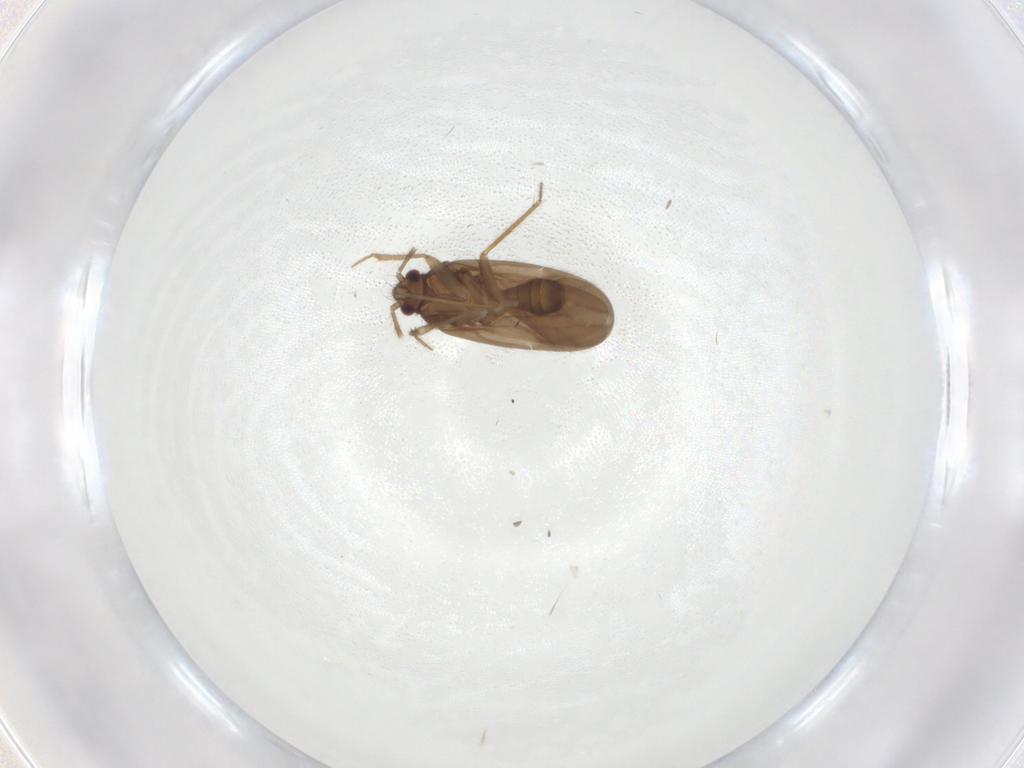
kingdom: Animalia
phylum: Arthropoda
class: Insecta
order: Hemiptera
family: Ceratocombidae
